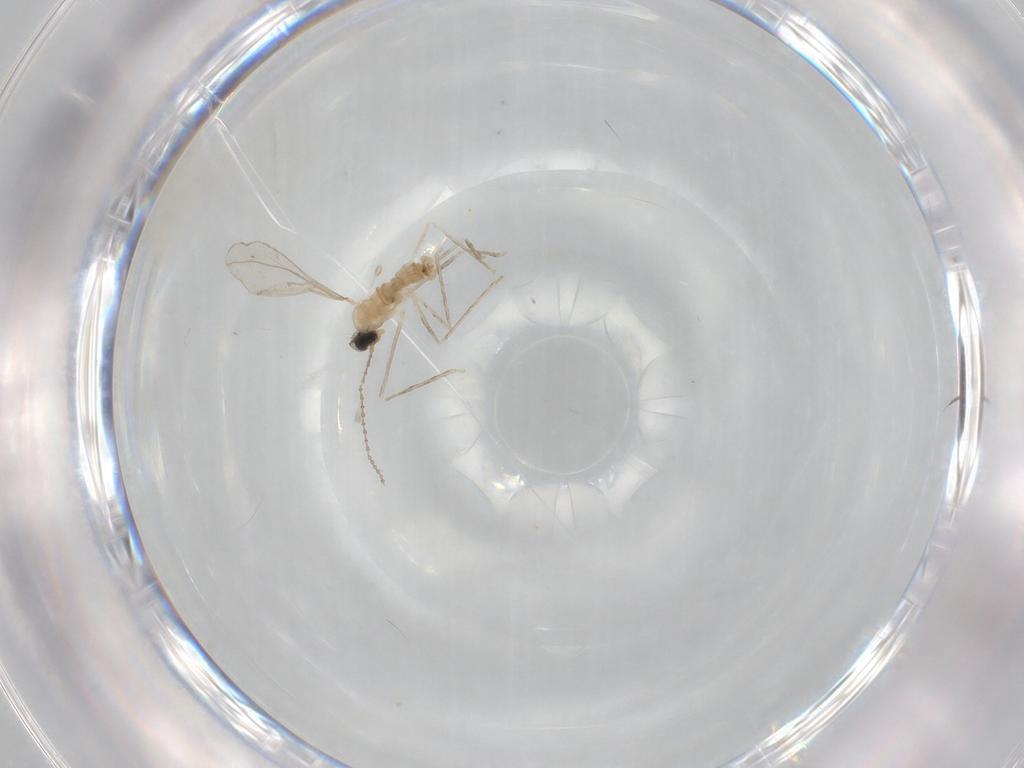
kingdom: Animalia
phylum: Arthropoda
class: Insecta
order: Diptera
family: Cecidomyiidae
